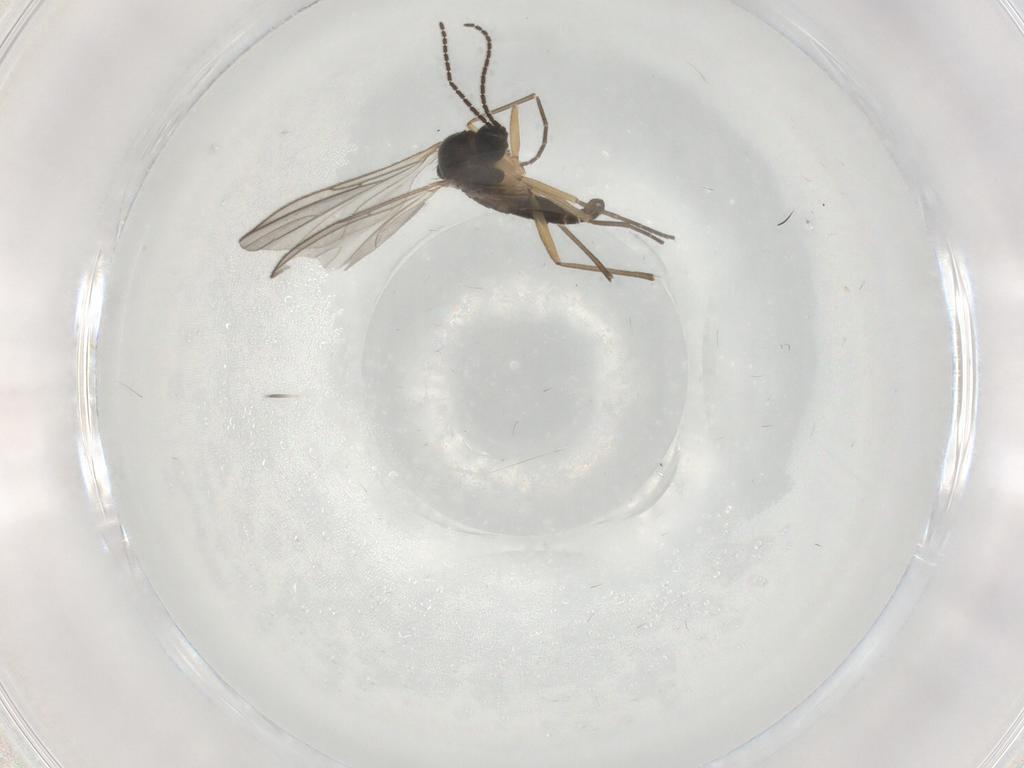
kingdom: Animalia
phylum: Arthropoda
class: Insecta
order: Diptera
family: Sciaridae
